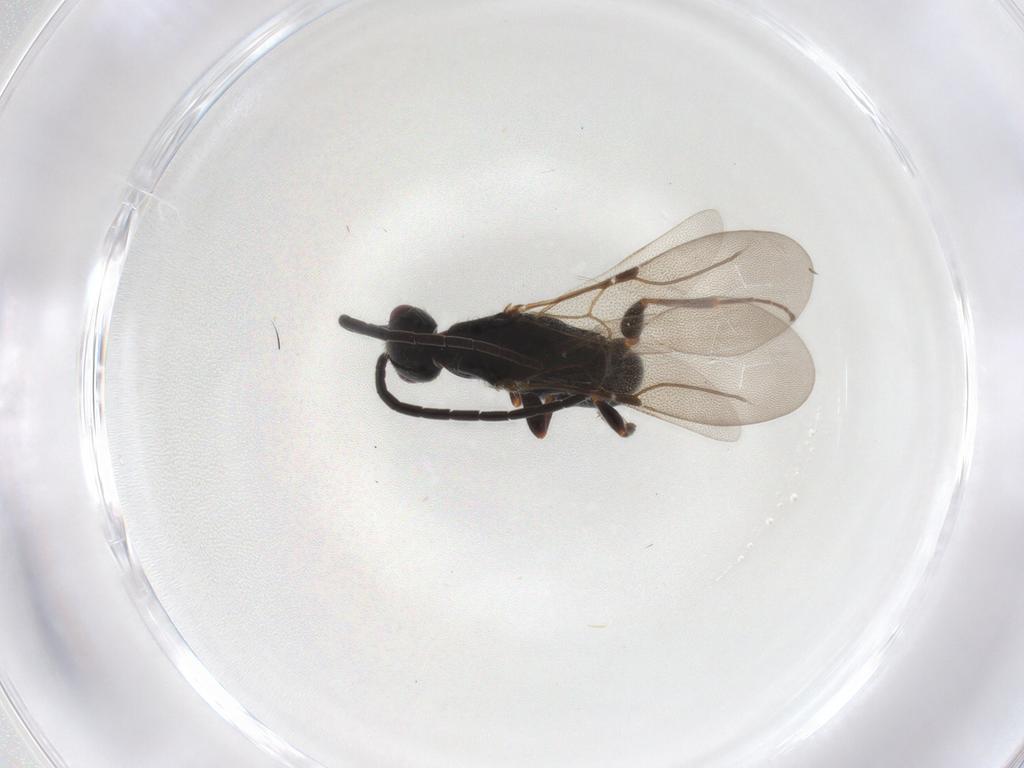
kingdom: Animalia
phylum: Arthropoda
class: Insecta
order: Hymenoptera
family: Bethylidae
